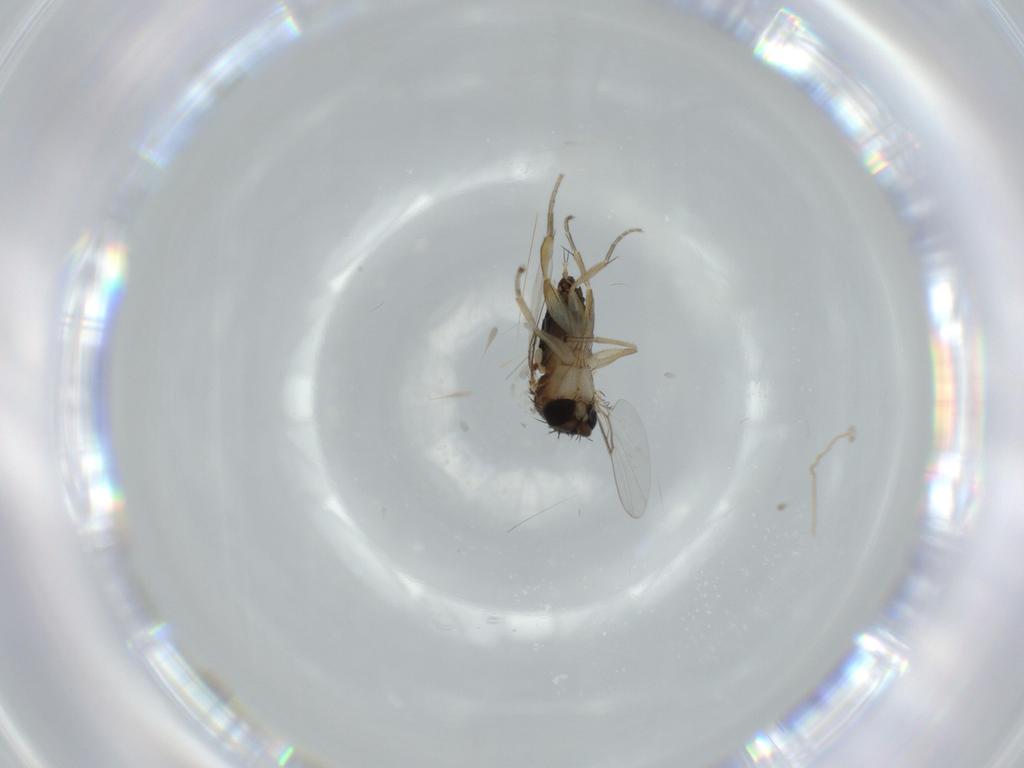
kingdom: Animalia
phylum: Arthropoda
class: Insecta
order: Diptera
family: Phoridae
